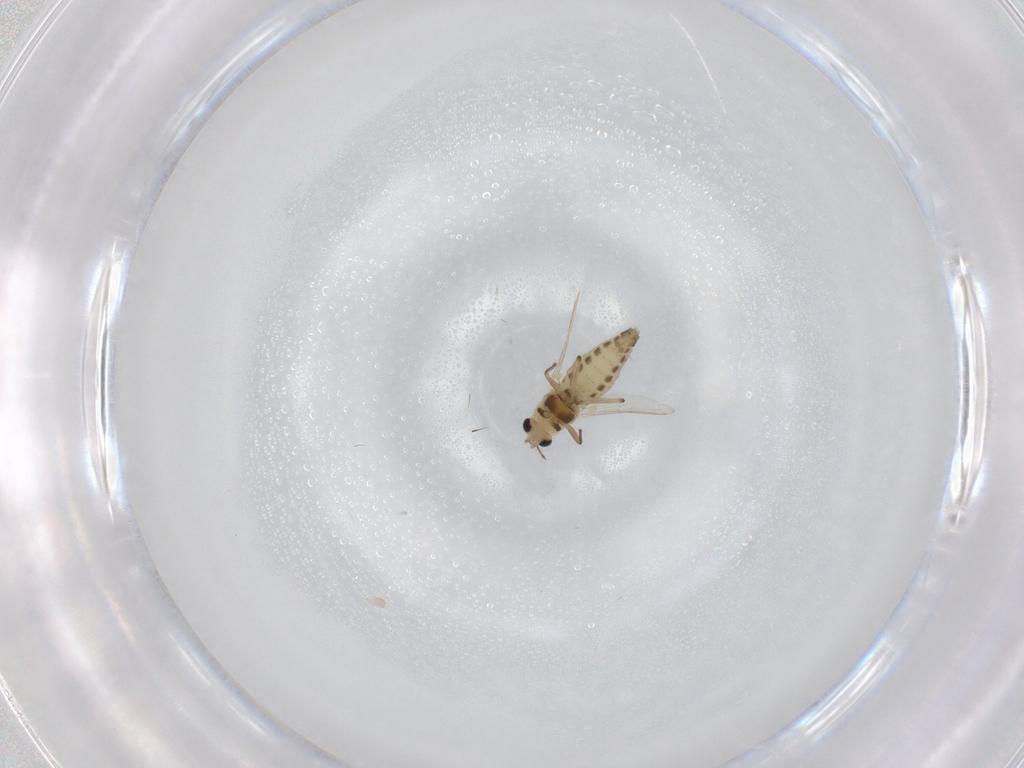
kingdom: Animalia
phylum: Arthropoda
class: Insecta
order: Diptera
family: Chironomidae
